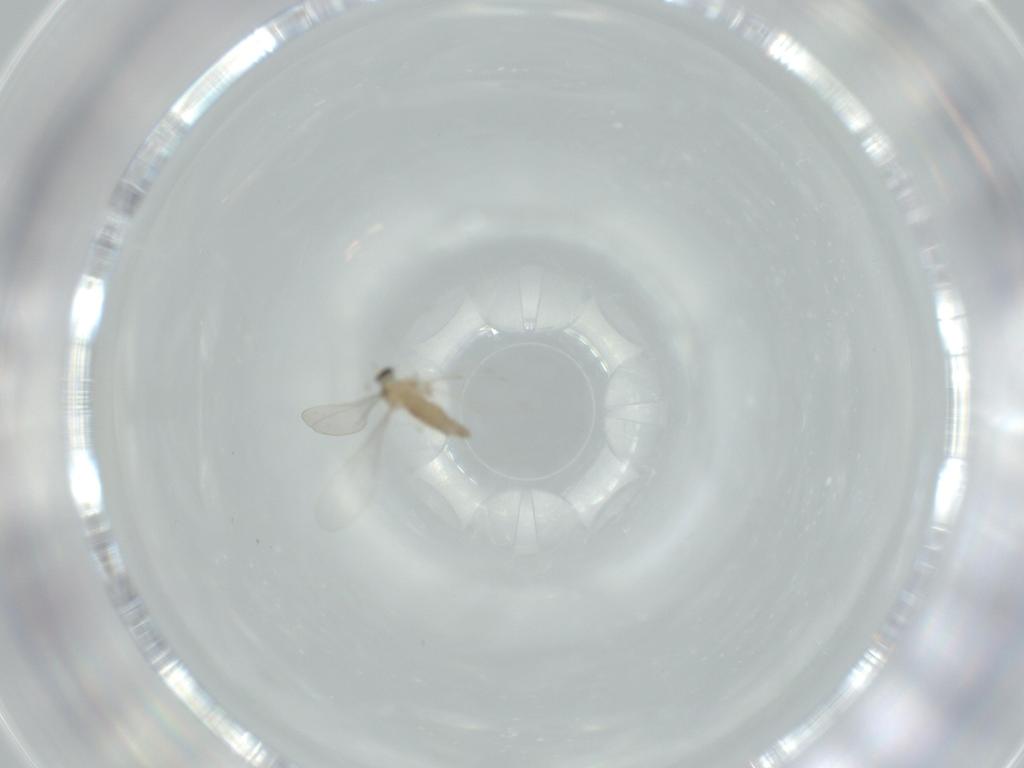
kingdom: Animalia
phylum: Arthropoda
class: Insecta
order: Diptera
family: Cecidomyiidae
